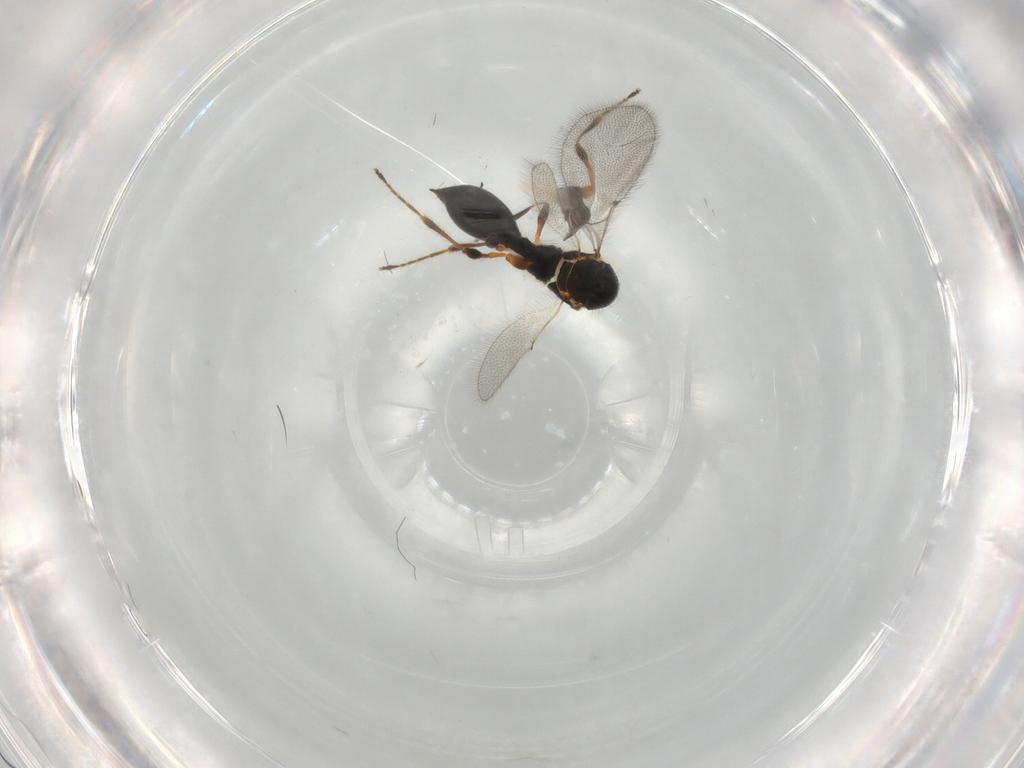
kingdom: Animalia
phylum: Arthropoda
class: Insecta
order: Hymenoptera
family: Diapriidae
